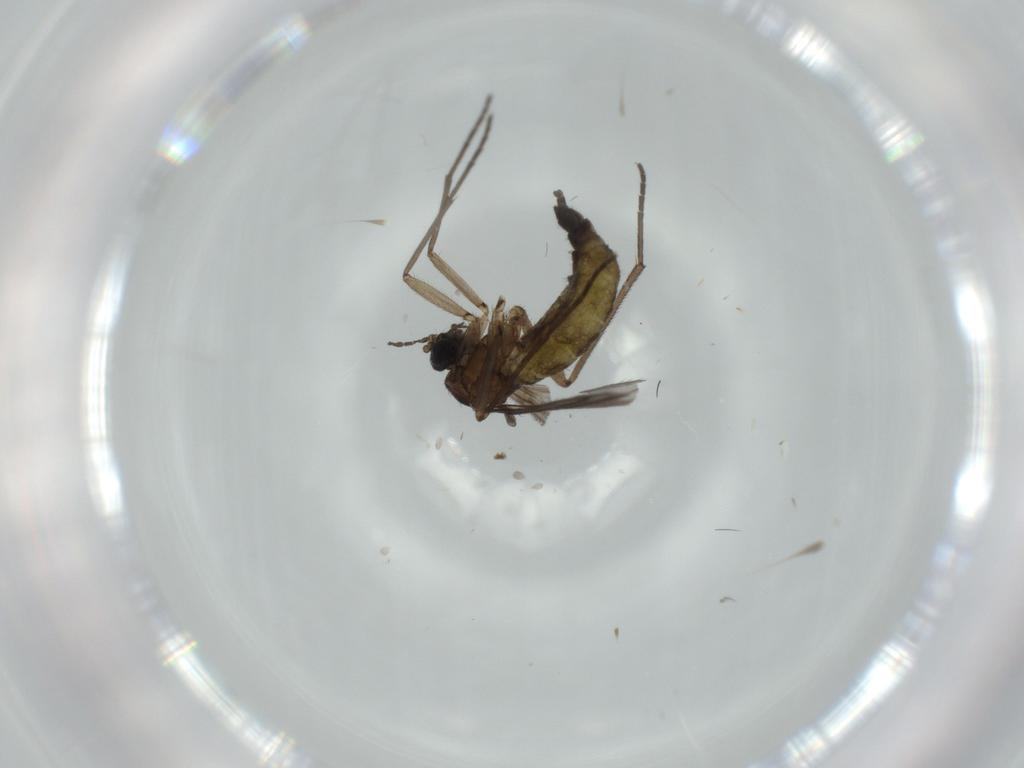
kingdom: Animalia
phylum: Arthropoda
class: Insecta
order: Diptera
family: Sciaridae
